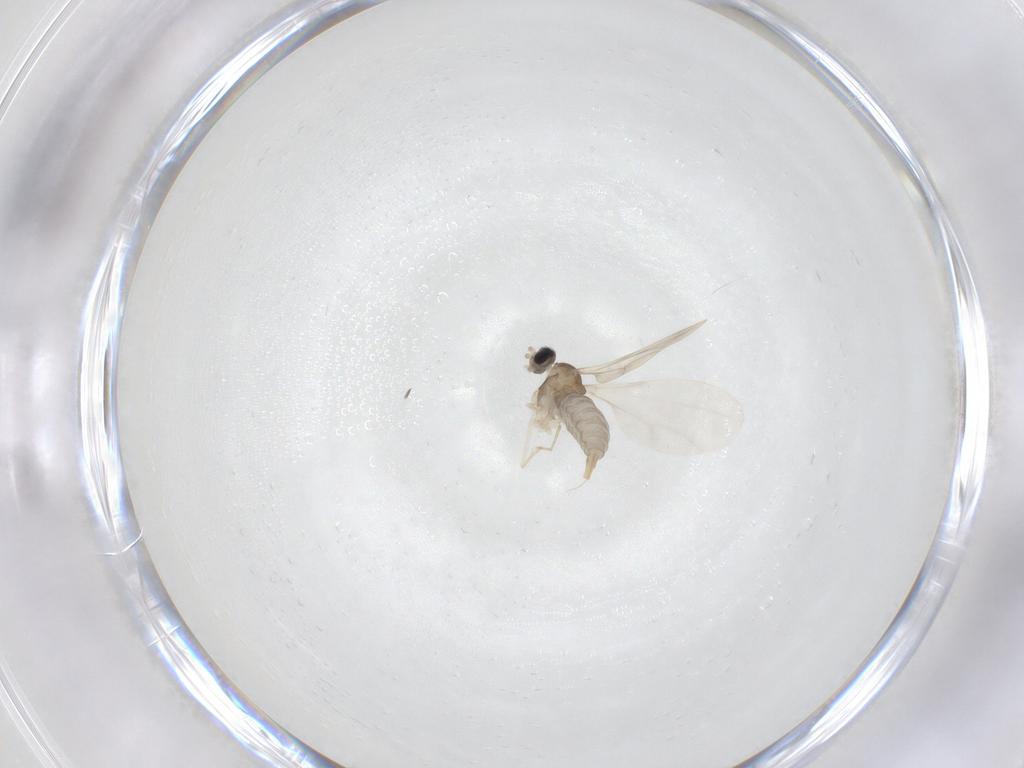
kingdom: Animalia
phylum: Arthropoda
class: Insecta
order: Diptera
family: Cecidomyiidae
